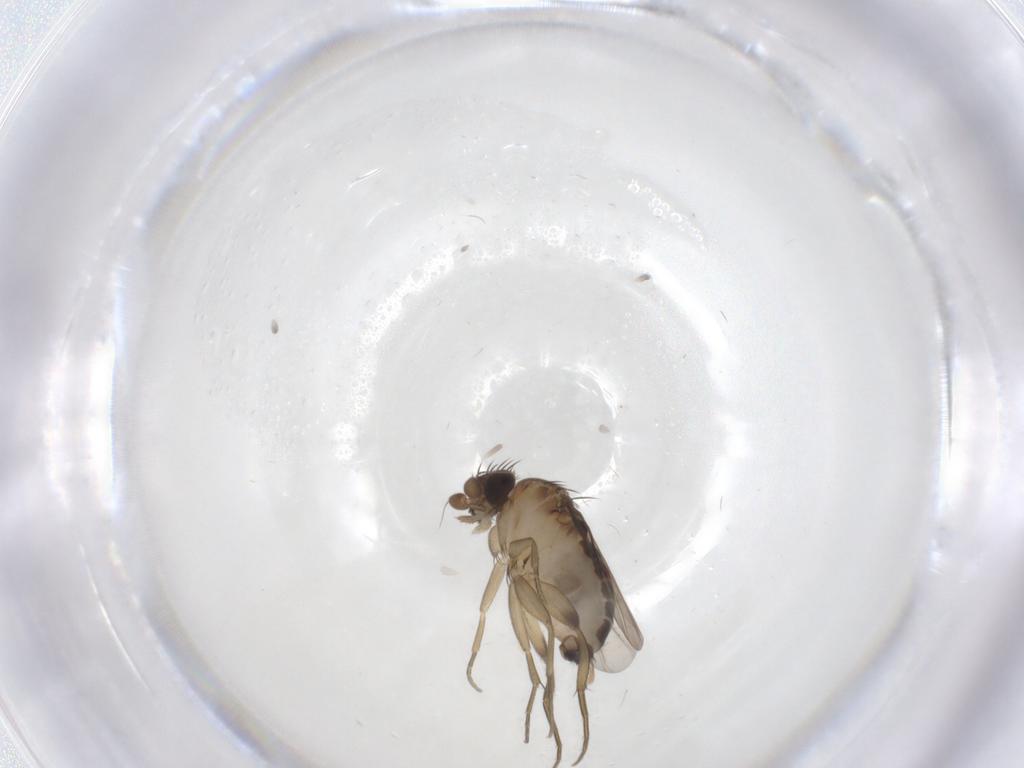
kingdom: Animalia
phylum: Arthropoda
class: Insecta
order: Diptera
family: Phoridae
